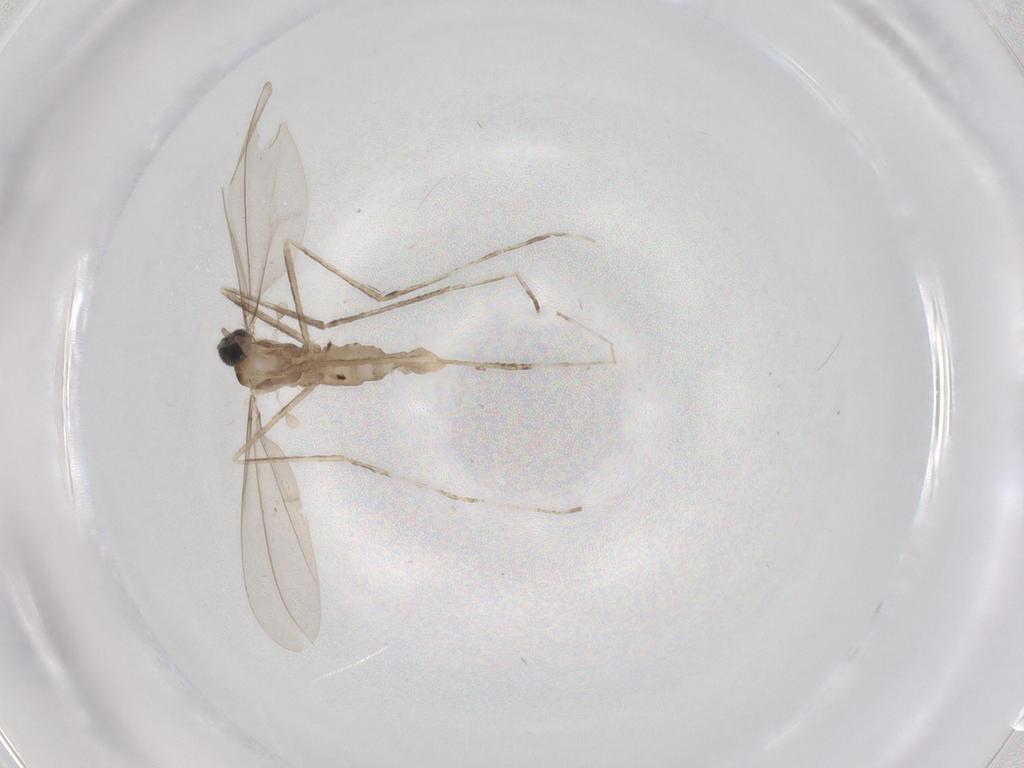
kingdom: Animalia
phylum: Arthropoda
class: Insecta
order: Diptera
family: Cecidomyiidae
